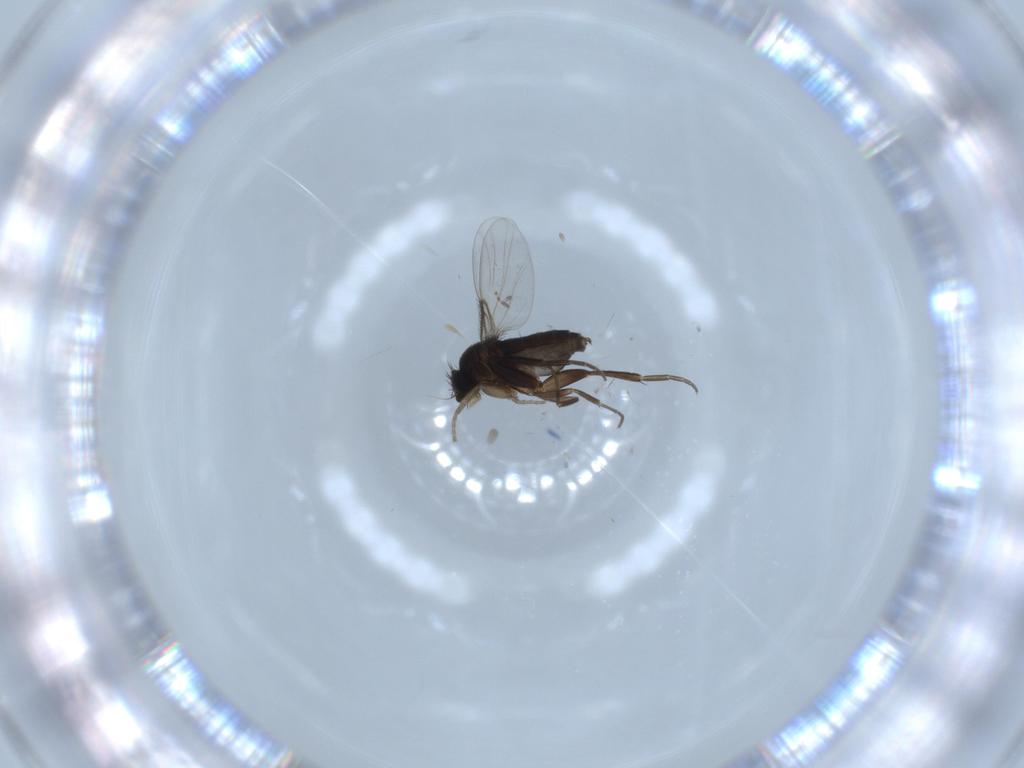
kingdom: Animalia
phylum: Arthropoda
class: Insecta
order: Diptera
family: Phoridae
